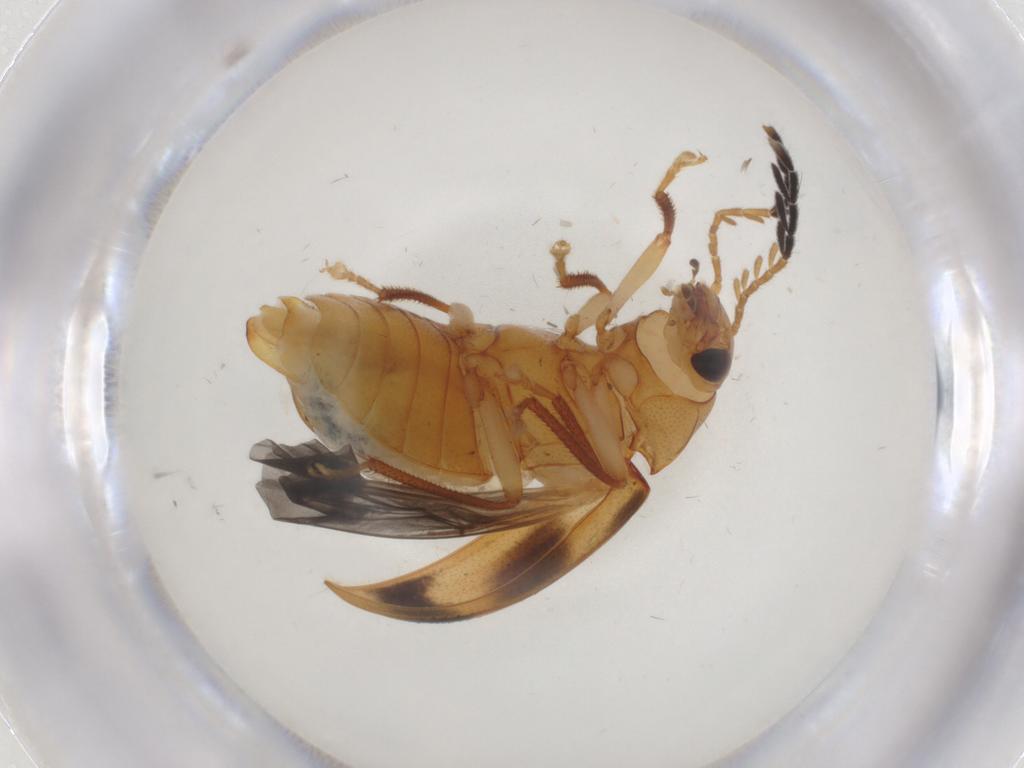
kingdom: Animalia
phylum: Arthropoda
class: Insecta
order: Coleoptera
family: Ptilodactylidae
